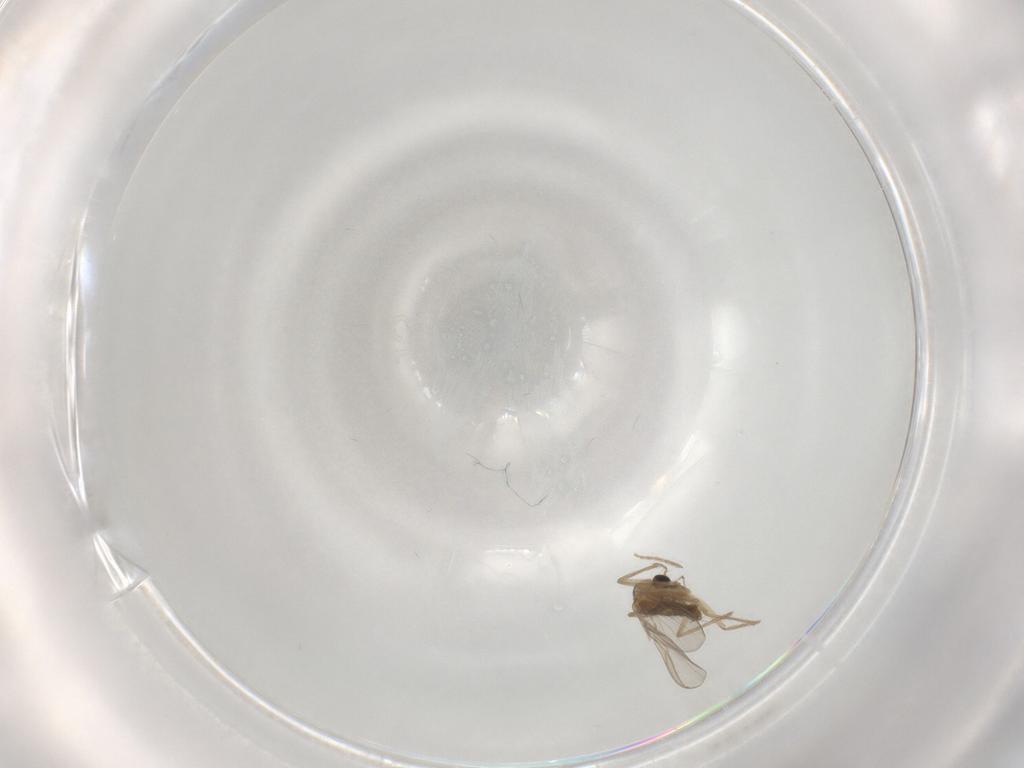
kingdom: Animalia
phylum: Arthropoda
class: Insecta
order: Diptera
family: Chironomidae
